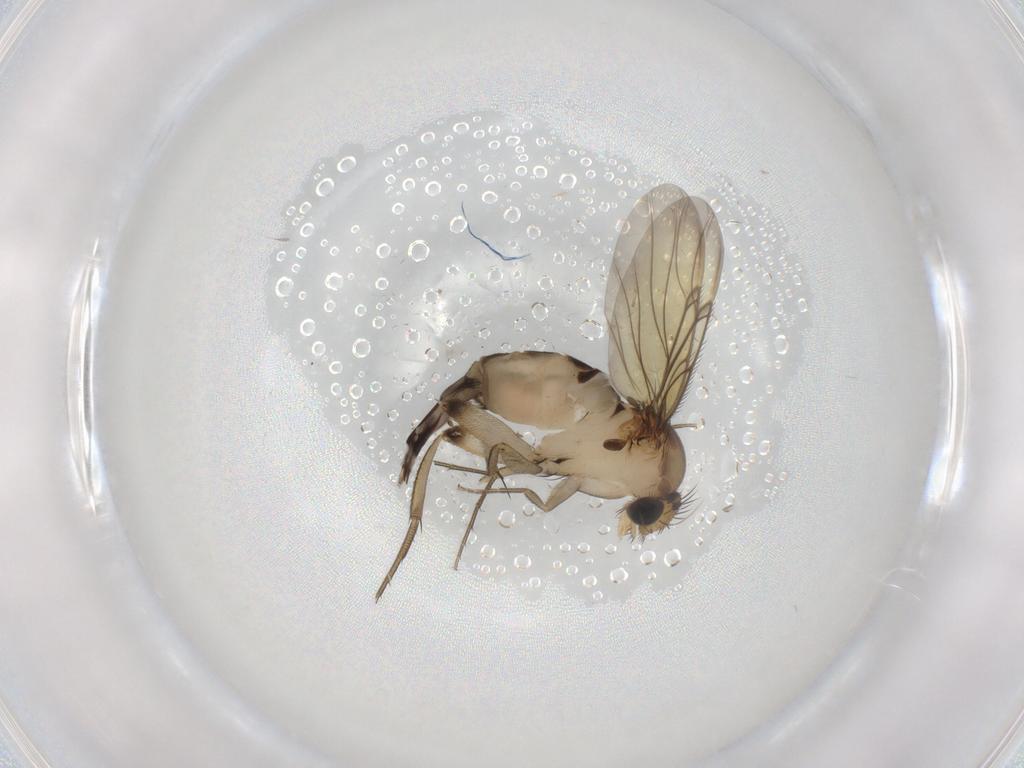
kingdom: Animalia
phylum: Arthropoda
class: Insecta
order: Diptera
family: Phoridae
